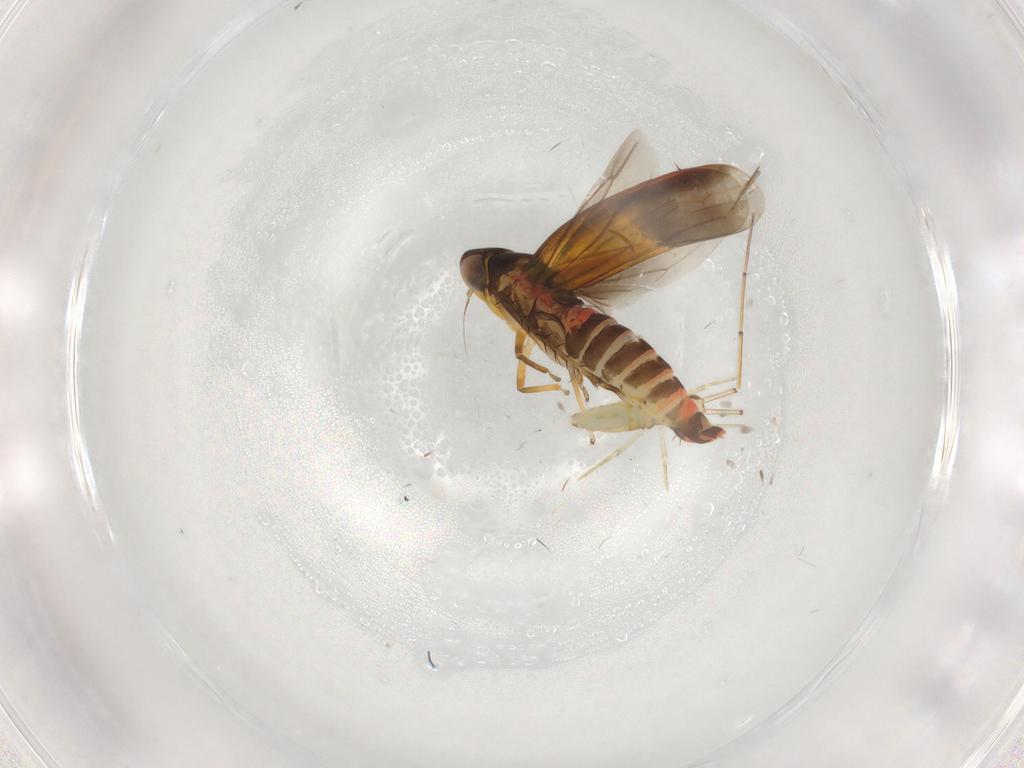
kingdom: Animalia
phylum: Arthropoda
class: Insecta
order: Hemiptera
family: Cicadellidae
